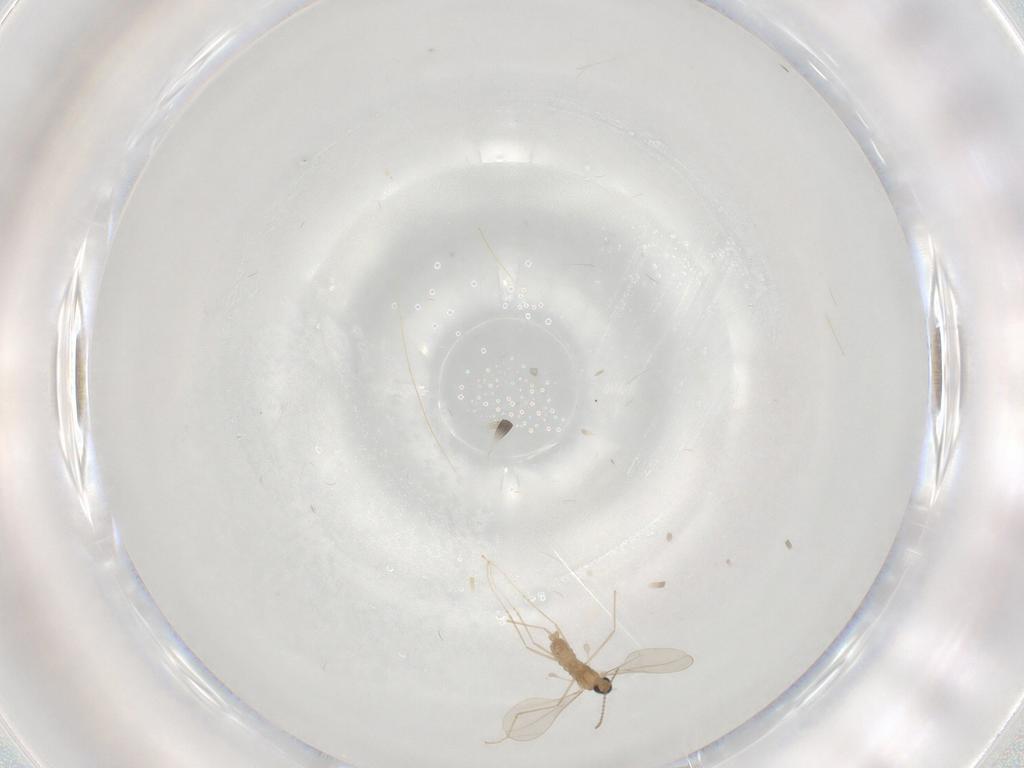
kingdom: Animalia
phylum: Arthropoda
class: Insecta
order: Diptera
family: Cecidomyiidae
